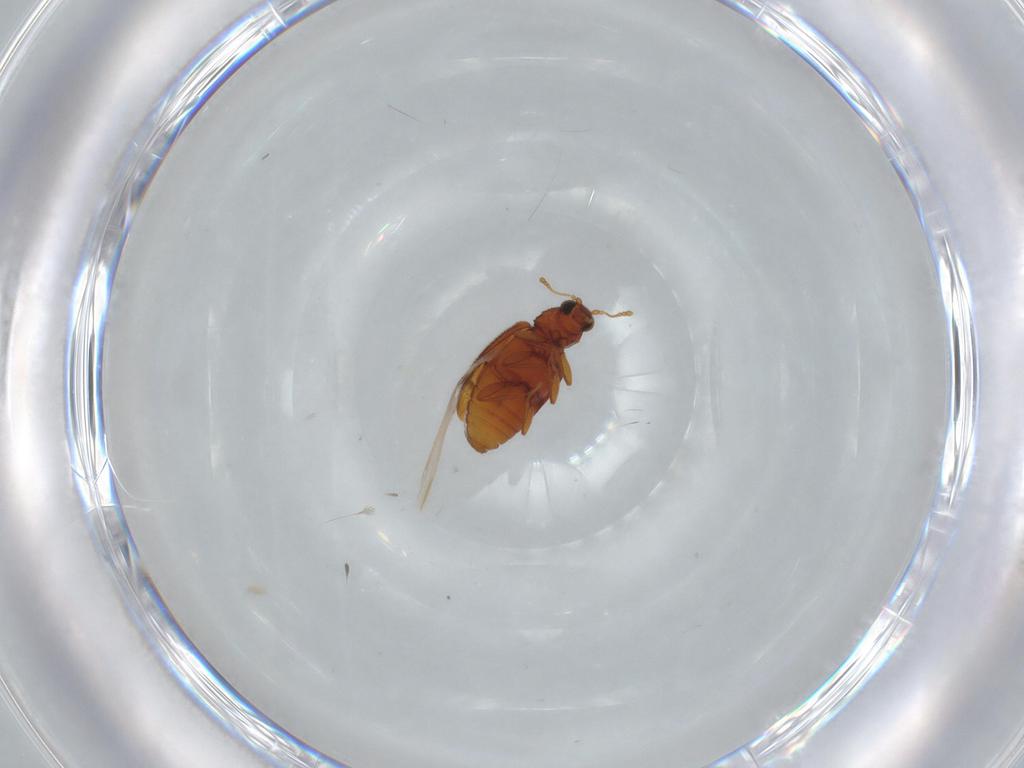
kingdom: Animalia
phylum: Arthropoda
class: Insecta
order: Coleoptera
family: Latridiidae
